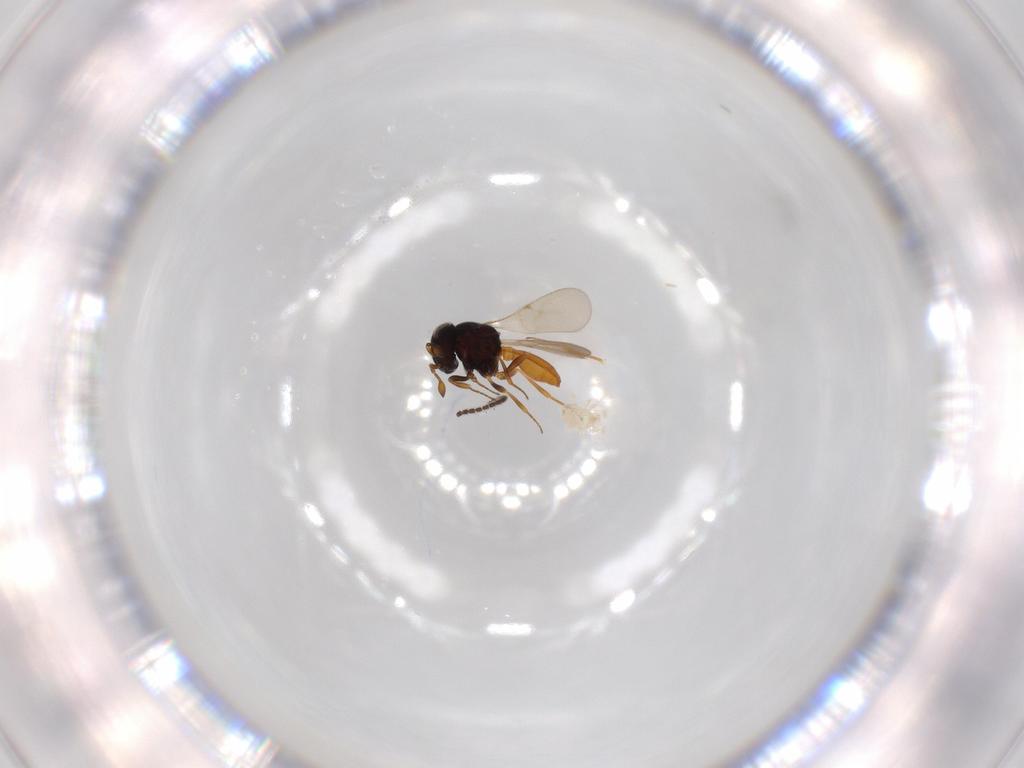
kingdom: Animalia
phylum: Arthropoda
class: Insecta
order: Hymenoptera
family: Scelionidae
